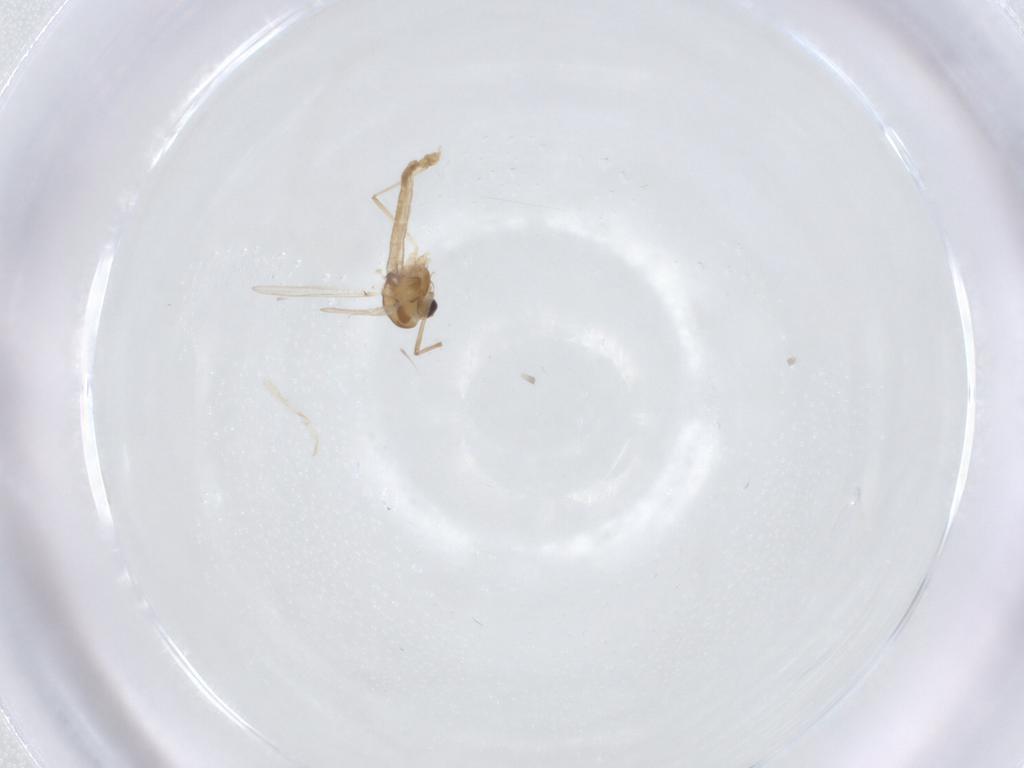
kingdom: Animalia
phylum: Arthropoda
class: Insecta
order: Diptera
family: Chironomidae
